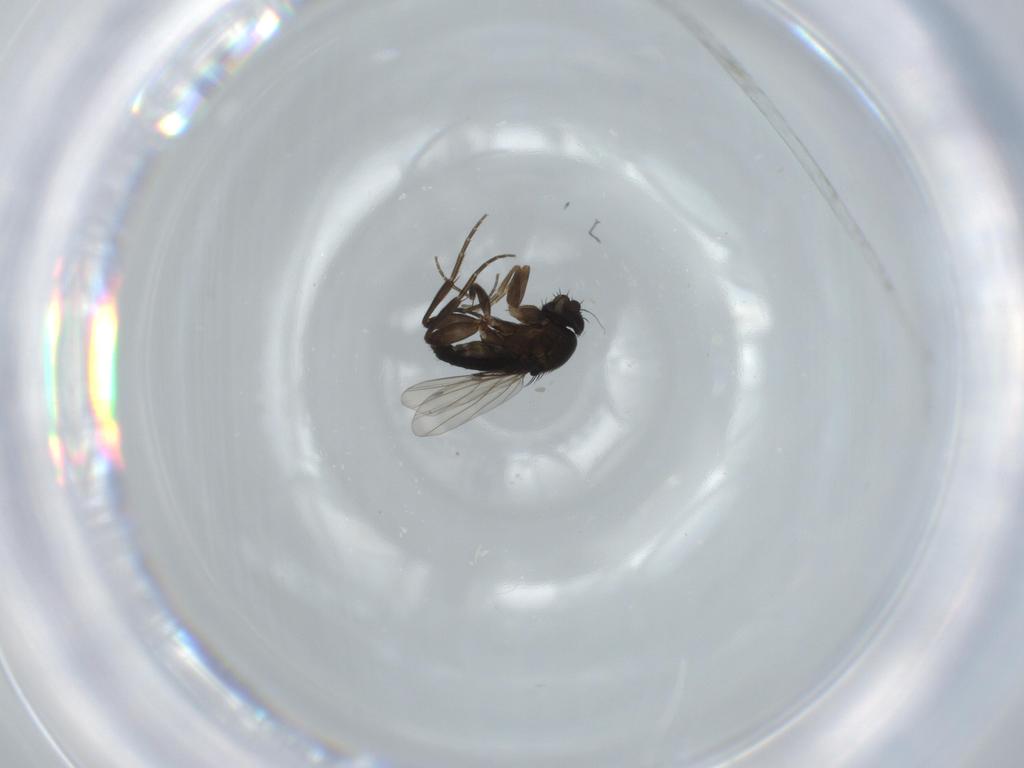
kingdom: Animalia
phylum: Arthropoda
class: Insecta
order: Diptera
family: Phoridae
